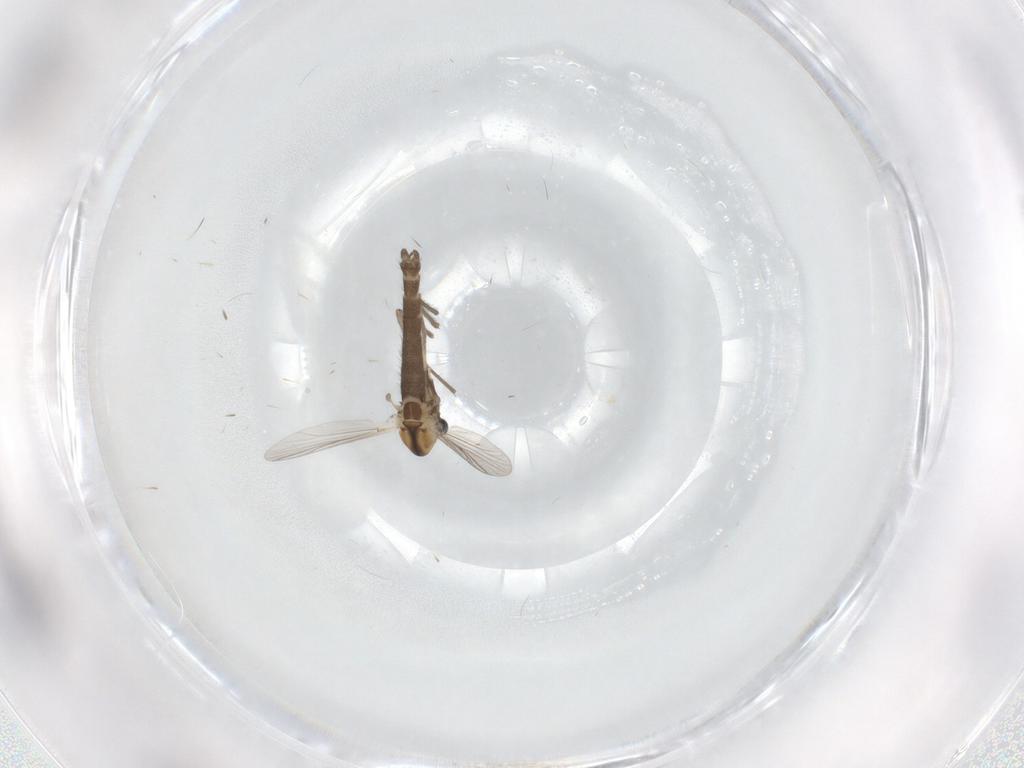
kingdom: Animalia
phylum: Arthropoda
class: Insecta
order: Diptera
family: Chironomidae
